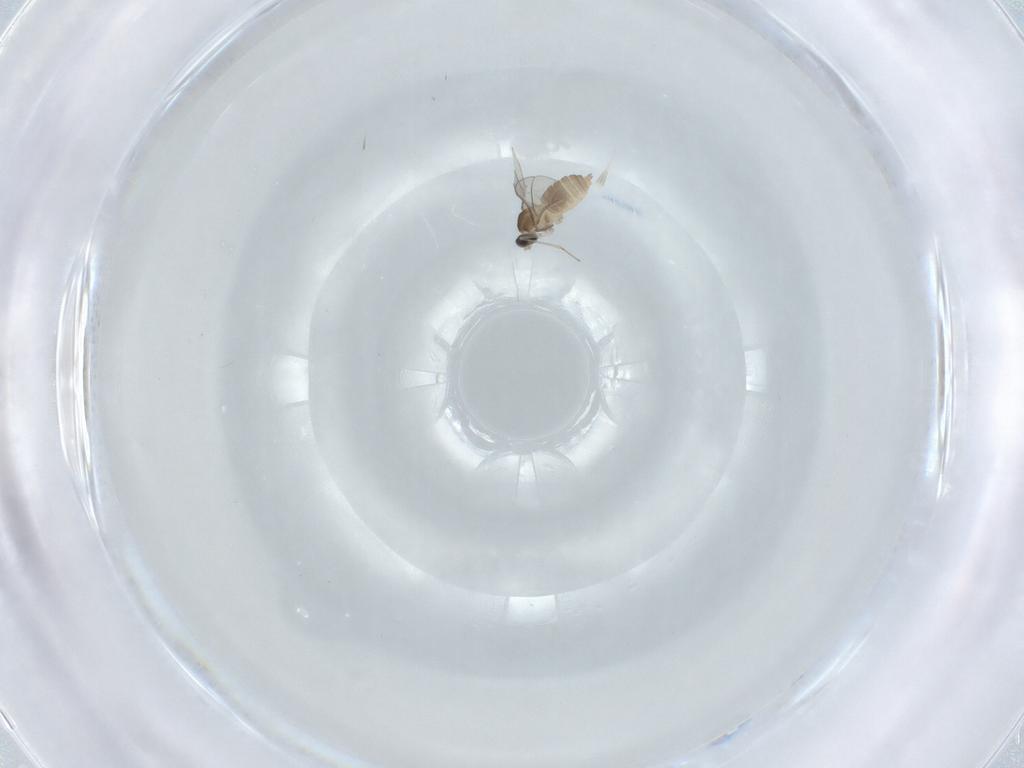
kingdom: Animalia
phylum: Arthropoda
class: Insecta
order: Diptera
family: Cecidomyiidae
